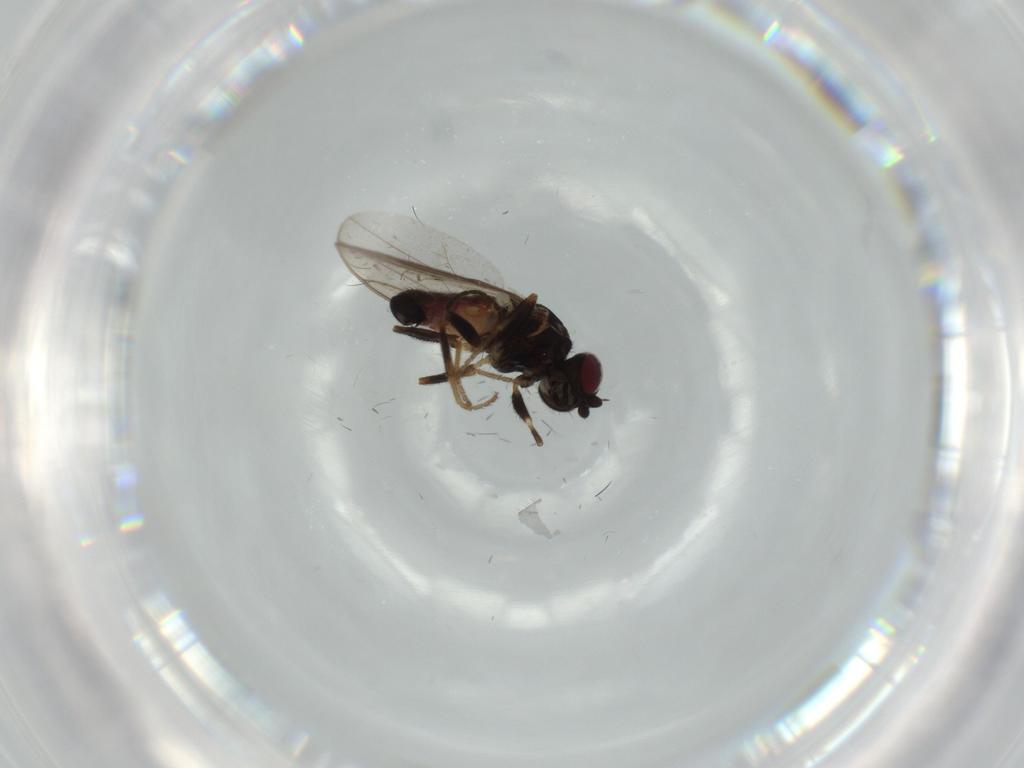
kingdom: Animalia
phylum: Arthropoda
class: Insecta
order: Diptera
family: Chloropidae
